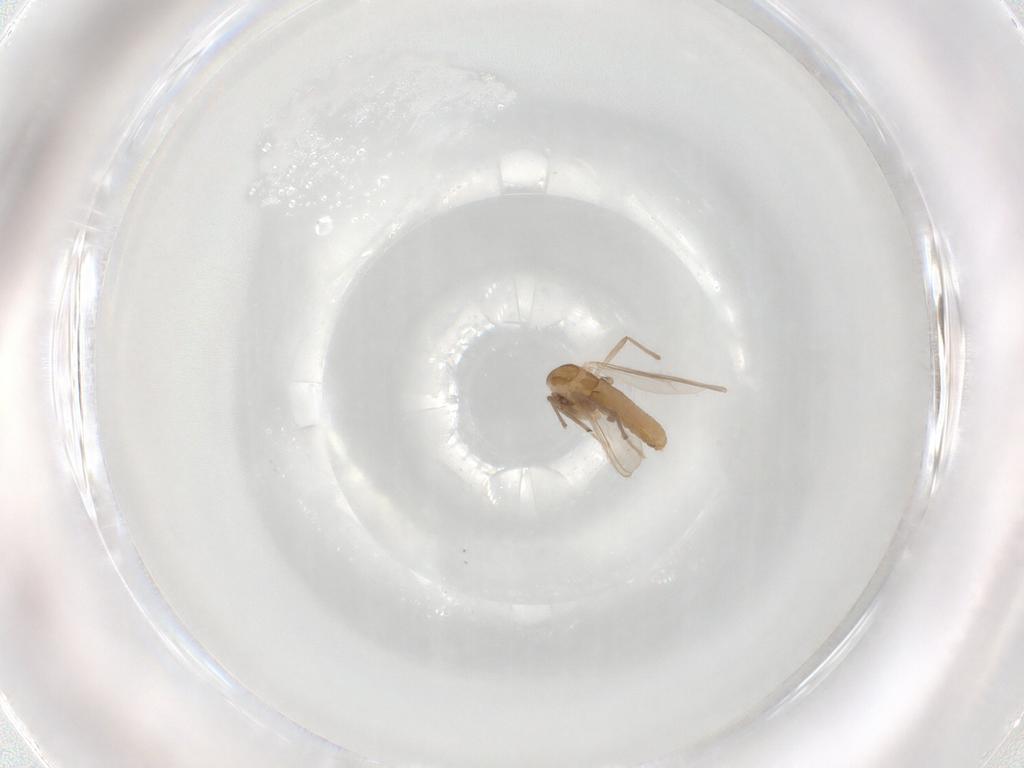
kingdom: Animalia
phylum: Arthropoda
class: Insecta
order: Diptera
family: Chironomidae
